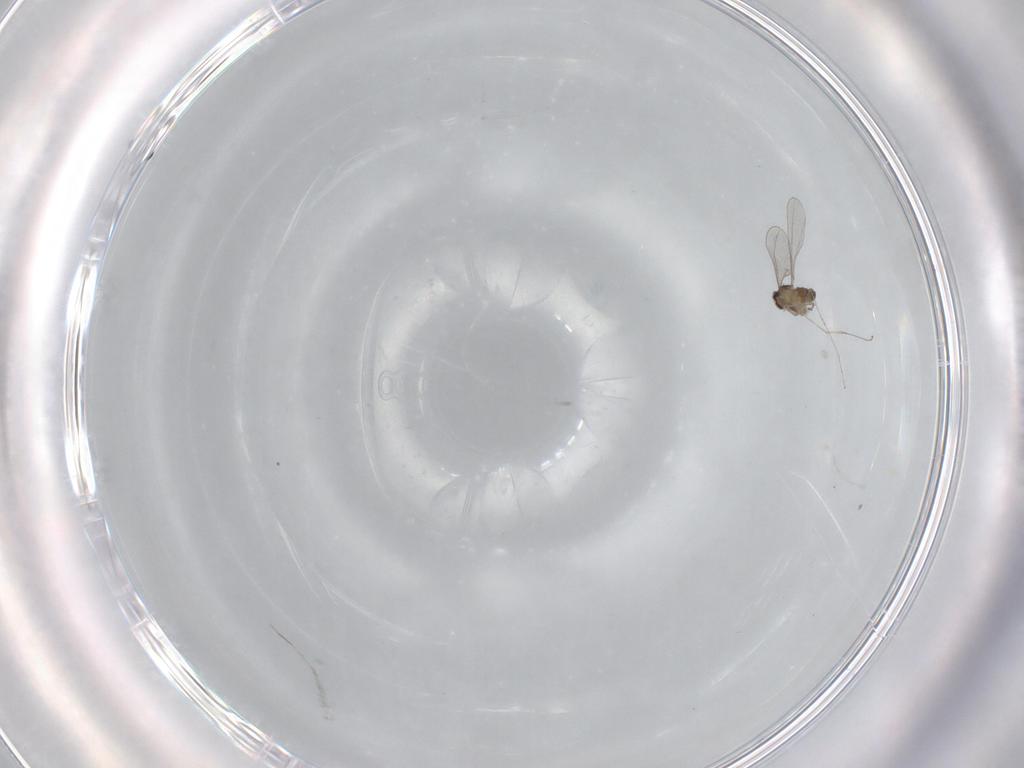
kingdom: Animalia
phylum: Arthropoda
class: Insecta
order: Diptera
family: Cecidomyiidae
